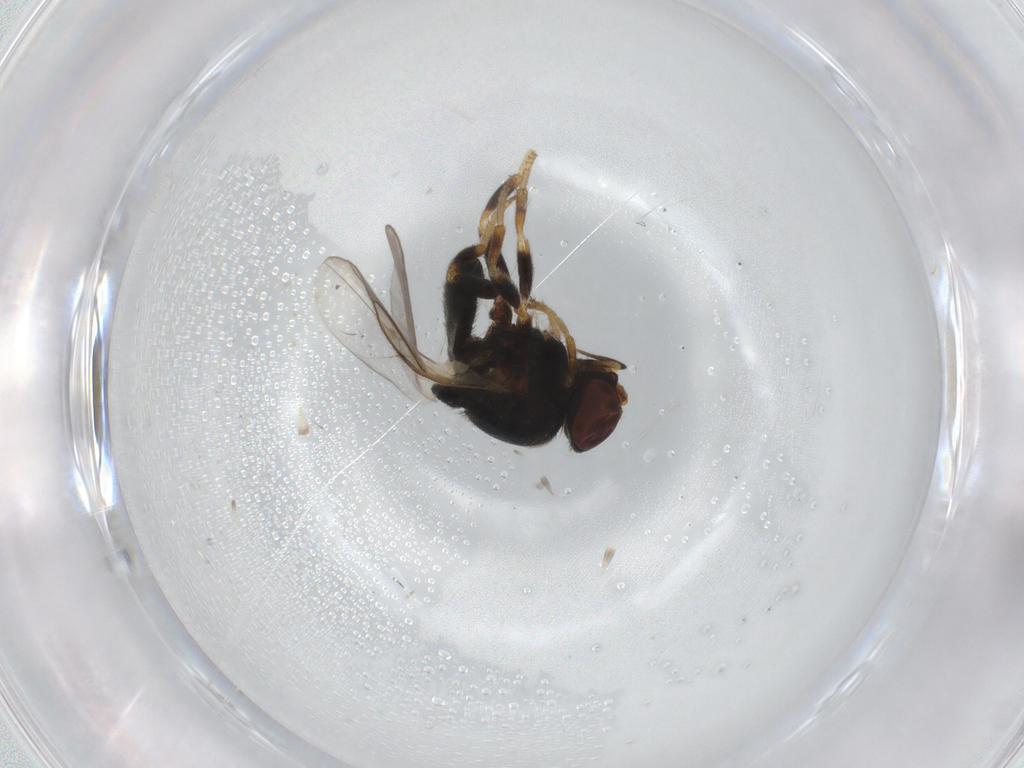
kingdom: Animalia
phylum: Arthropoda
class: Insecta
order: Diptera
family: Chloropidae
